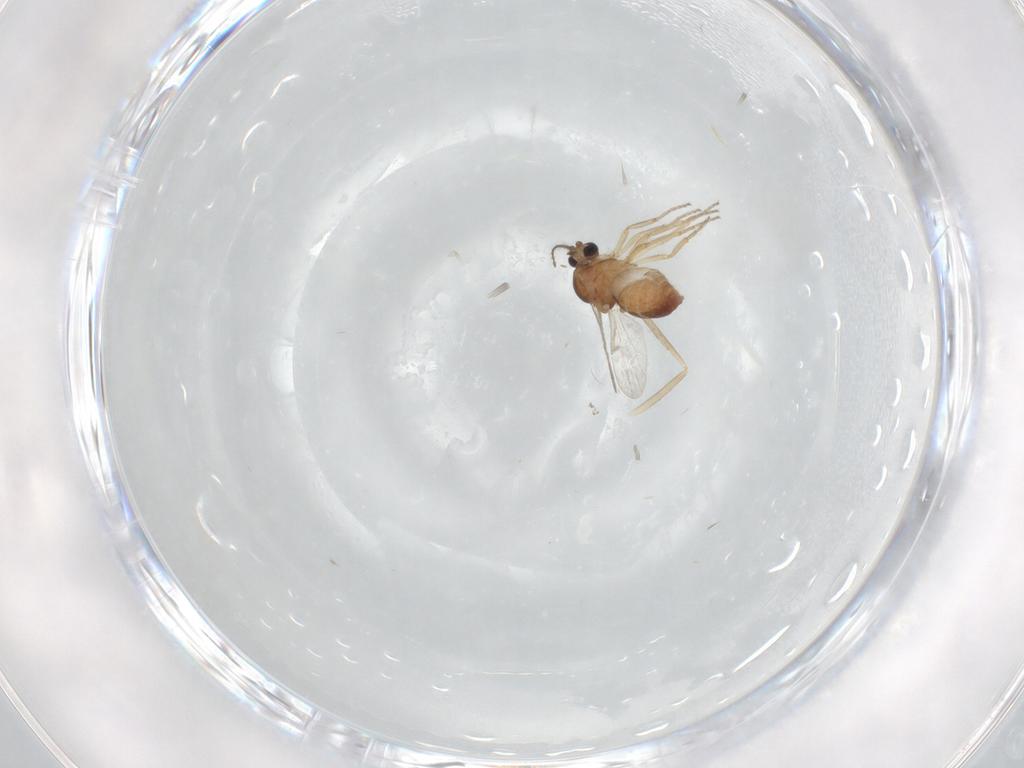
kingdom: Animalia
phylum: Arthropoda
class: Insecta
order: Diptera
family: Ceratopogonidae
